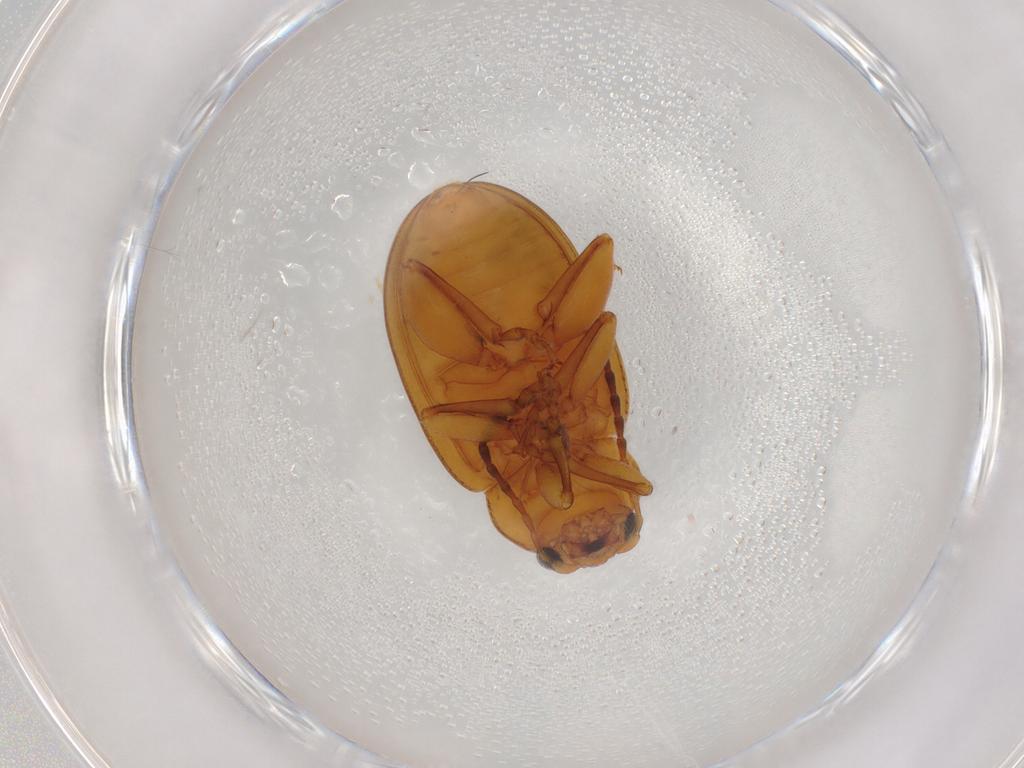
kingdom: Animalia
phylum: Arthropoda
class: Insecta
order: Coleoptera
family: Chrysomelidae
